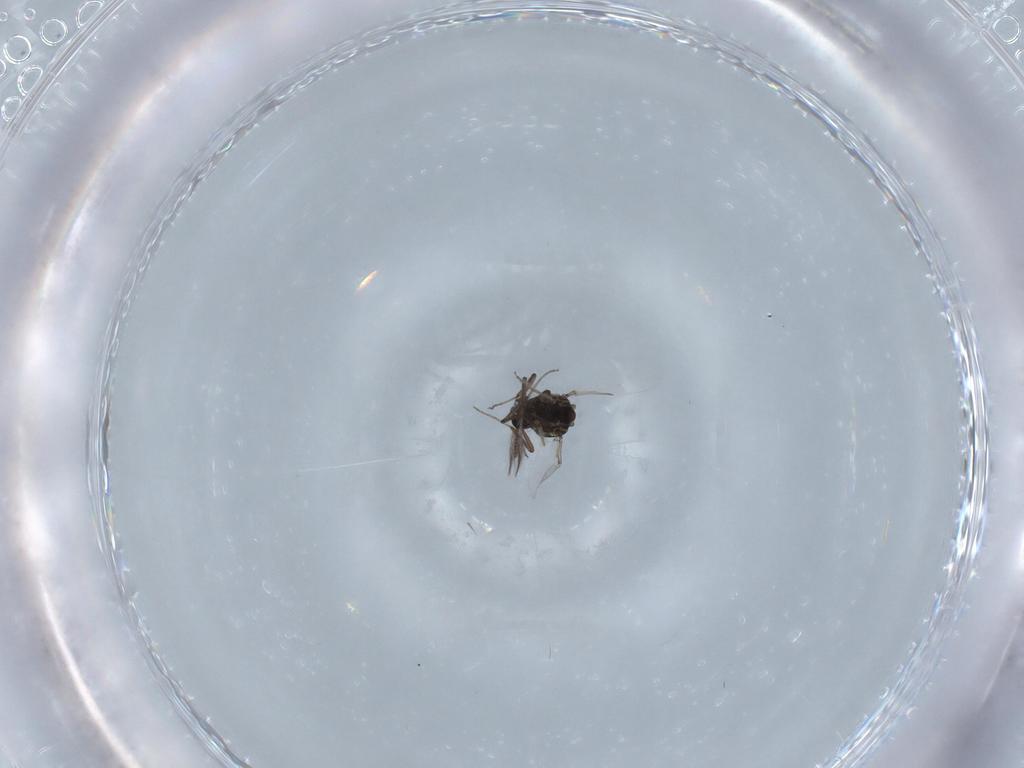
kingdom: Animalia
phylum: Arthropoda
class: Insecta
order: Diptera
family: Ceratopogonidae
